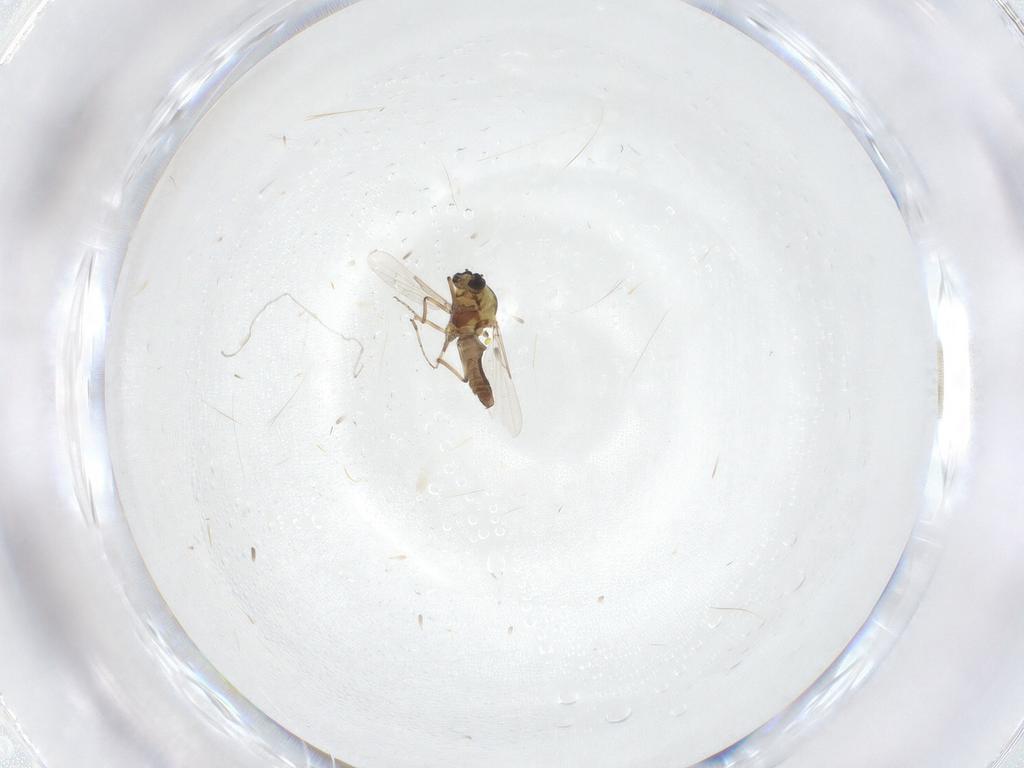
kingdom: Animalia
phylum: Arthropoda
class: Insecta
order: Diptera
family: Ceratopogonidae
